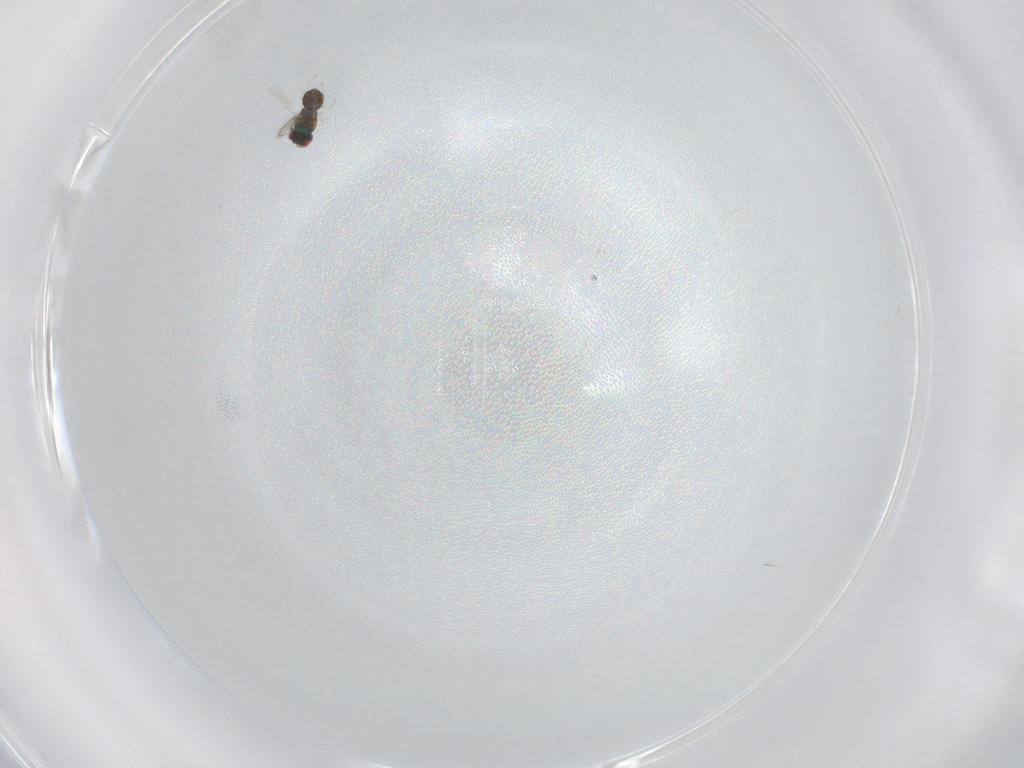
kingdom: Animalia
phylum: Arthropoda
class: Insecta
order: Hymenoptera
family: Eulophidae
